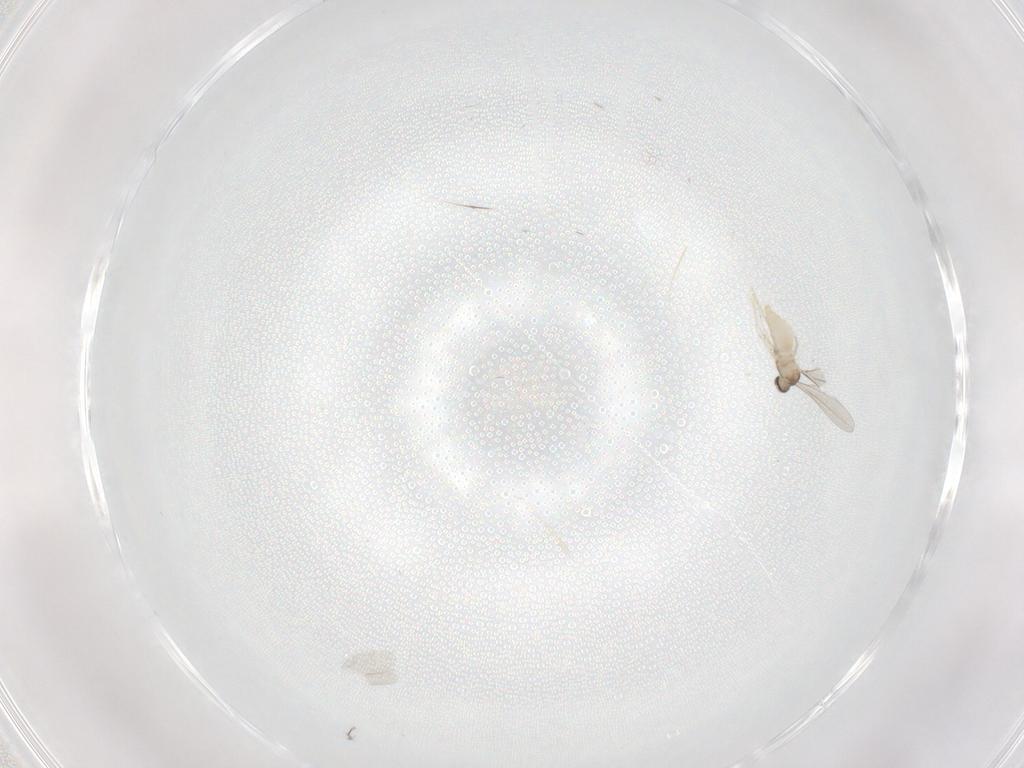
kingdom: Animalia
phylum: Arthropoda
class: Insecta
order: Diptera
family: Cecidomyiidae
